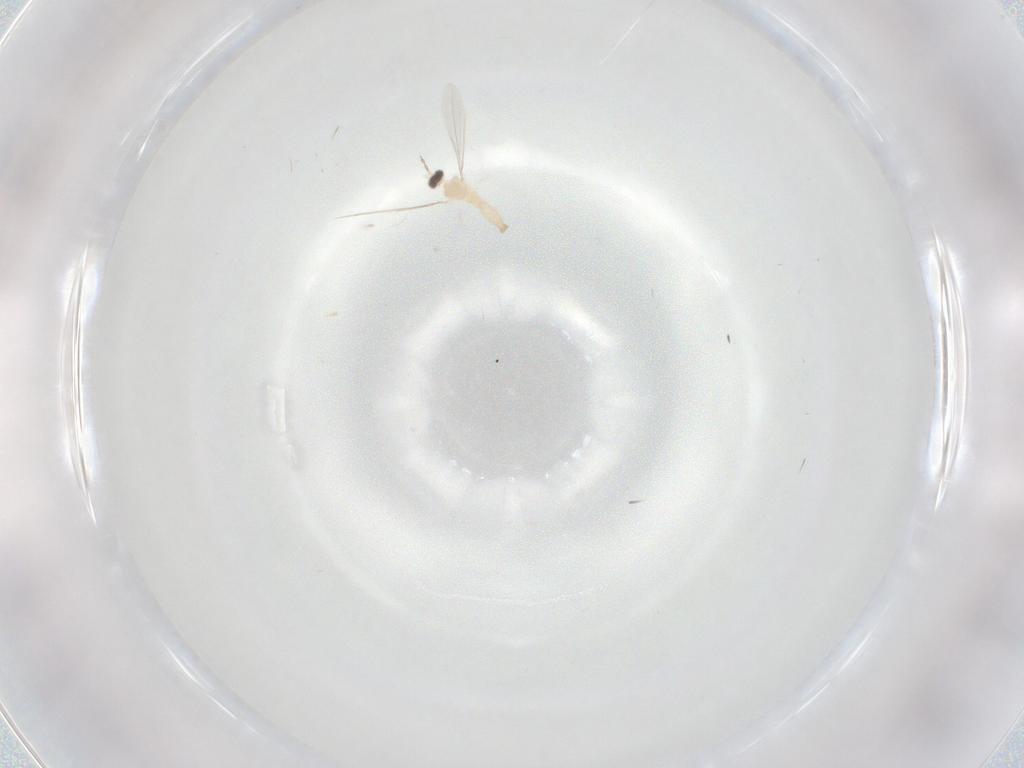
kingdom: Animalia
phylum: Arthropoda
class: Insecta
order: Diptera
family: Cecidomyiidae
